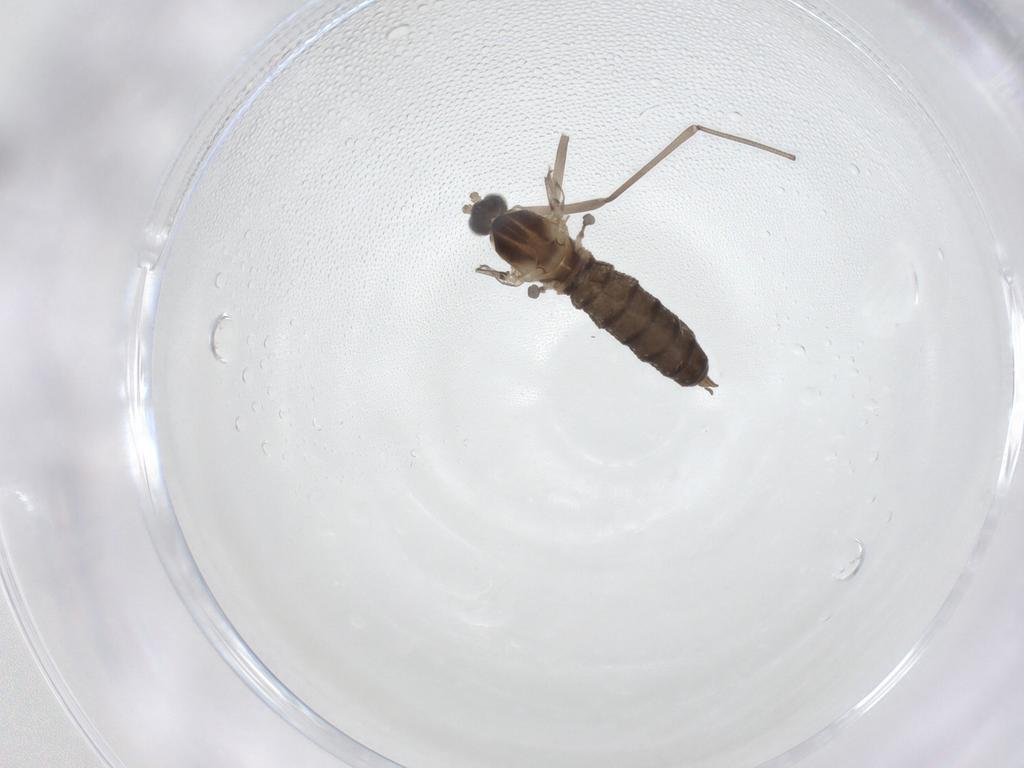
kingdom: Animalia
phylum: Arthropoda
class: Insecta
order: Diptera
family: Cecidomyiidae
